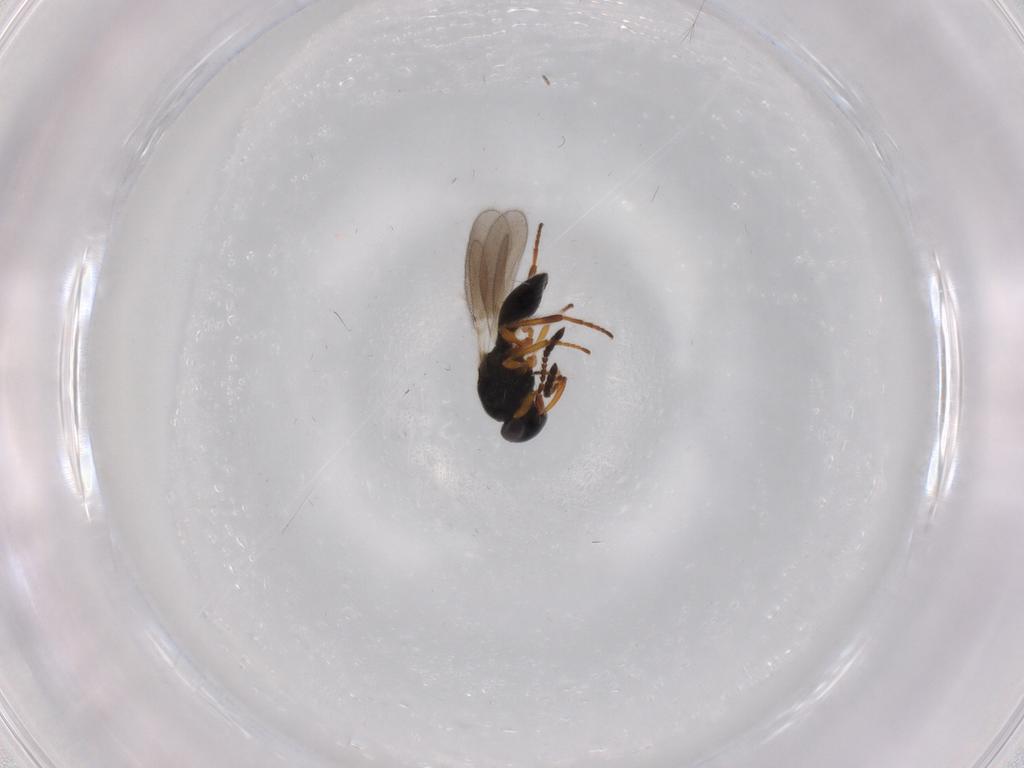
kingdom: Animalia
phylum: Arthropoda
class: Insecta
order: Hymenoptera
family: Platygastridae
